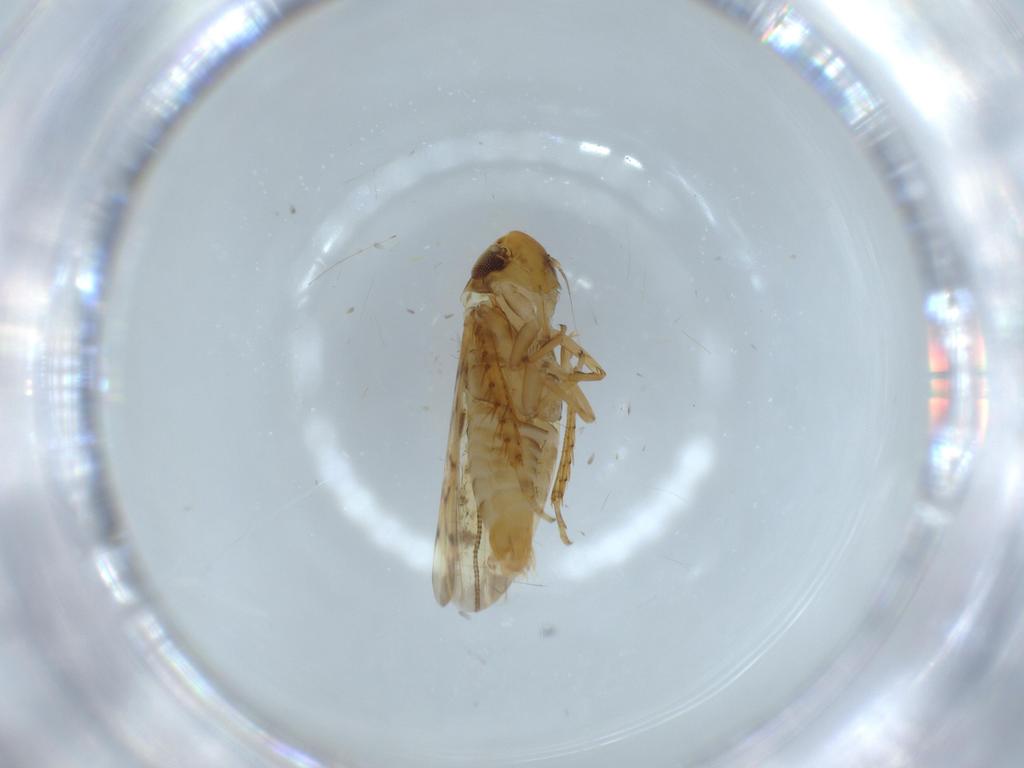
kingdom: Animalia
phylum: Arthropoda
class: Insecta
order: Hemiptera
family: Cicadellidae
